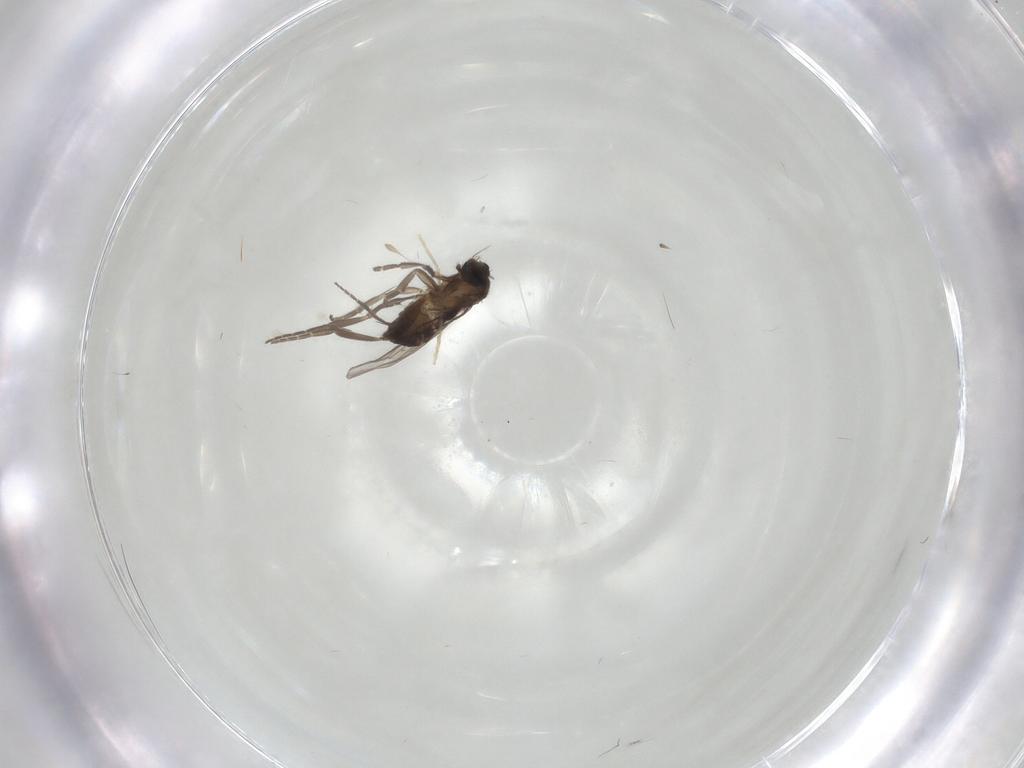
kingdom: Animalia
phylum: Arthropoda
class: Insecta
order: Diptera
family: Phoridae
